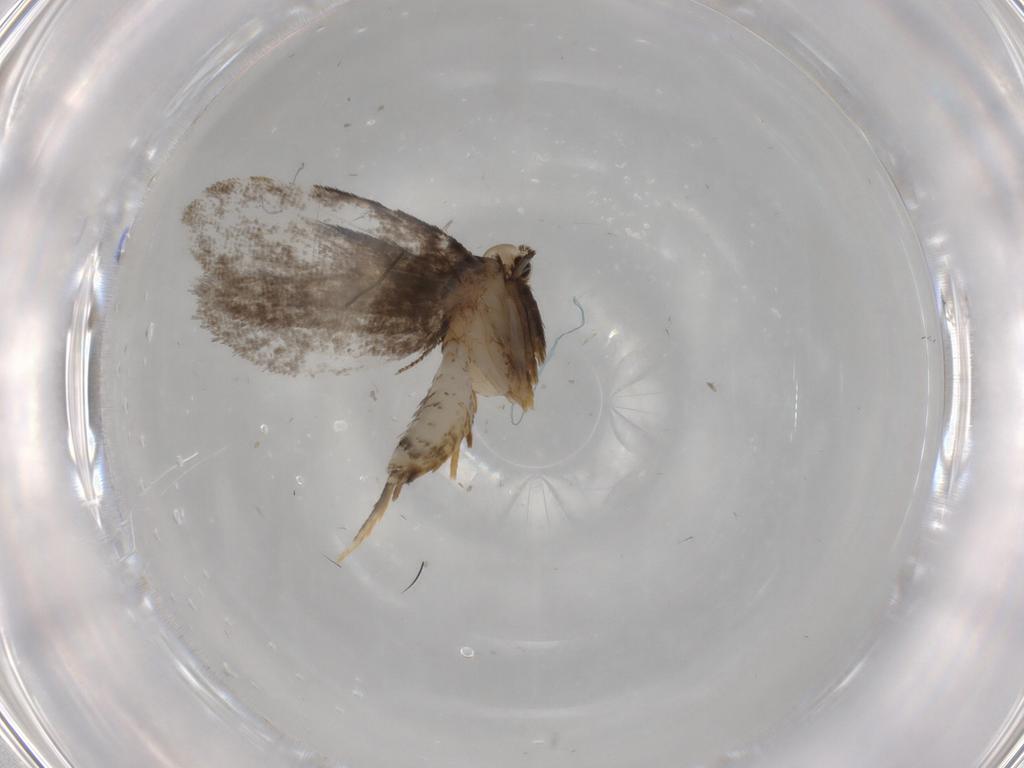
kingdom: Animalia
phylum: Arthropoda
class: Insecta
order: Lepidoptera
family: Psychidae
